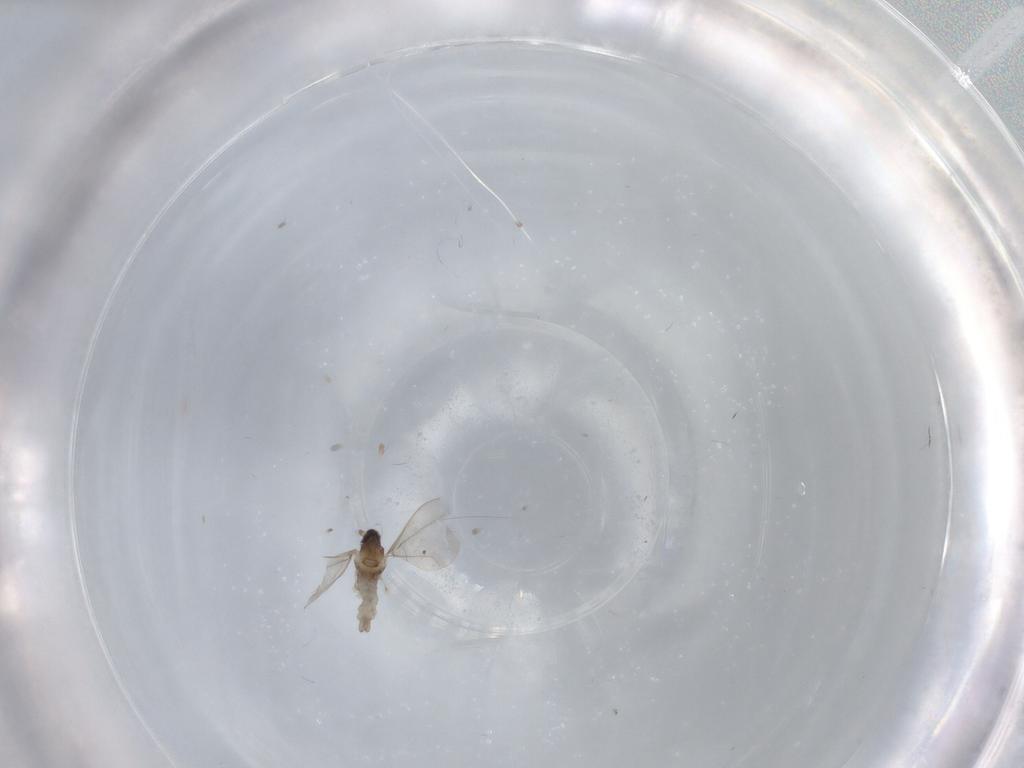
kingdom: Animalia
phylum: Arthropoda
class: Insecta
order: Diptera
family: Cecidomyiidae
